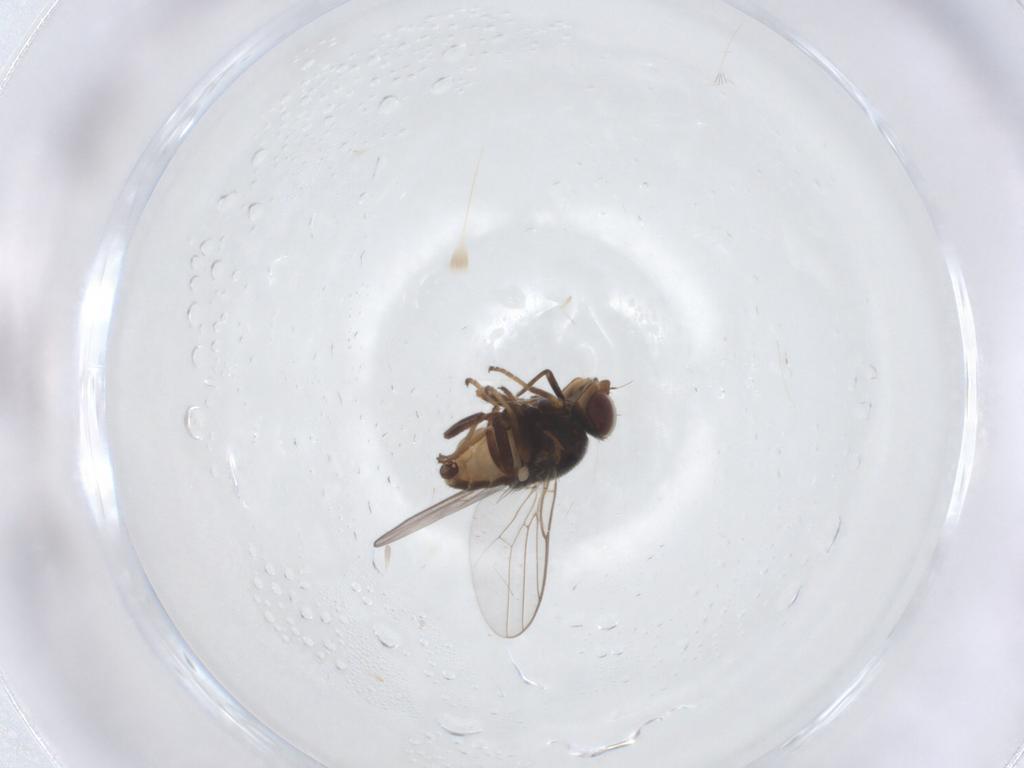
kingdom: Animalia
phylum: Arthropoda
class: Insecta
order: Diptera
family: Chloropidae
